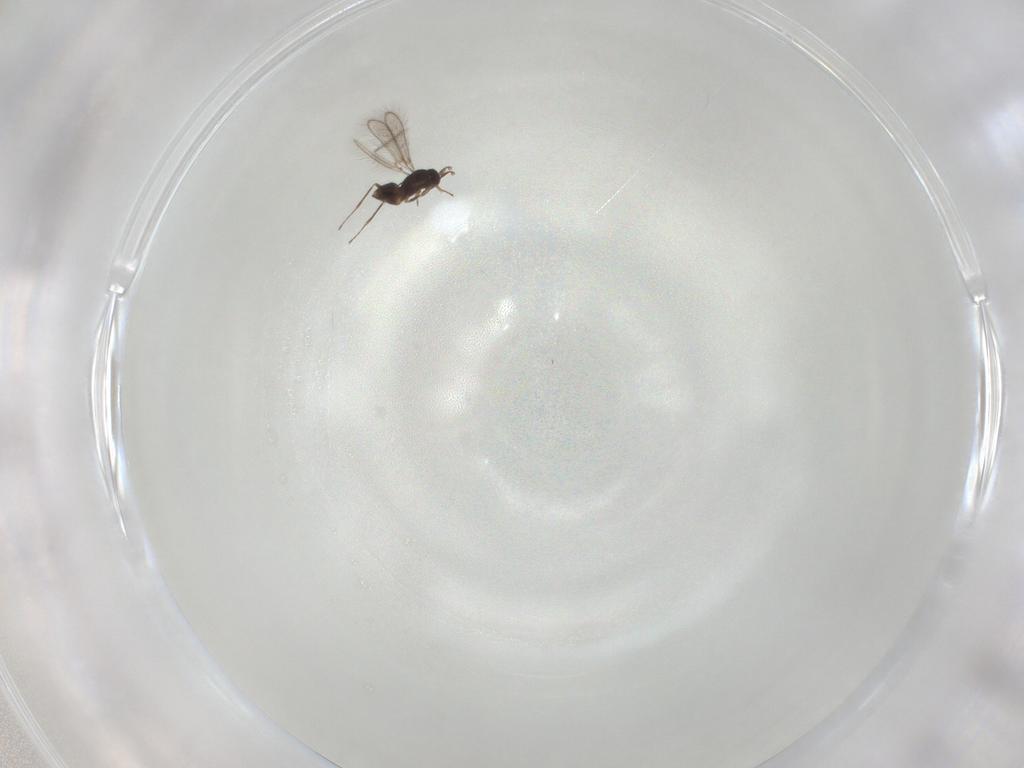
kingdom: Animalia
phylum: Arthropoda
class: Insecta
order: Hymenoptera
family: Mymaridae
